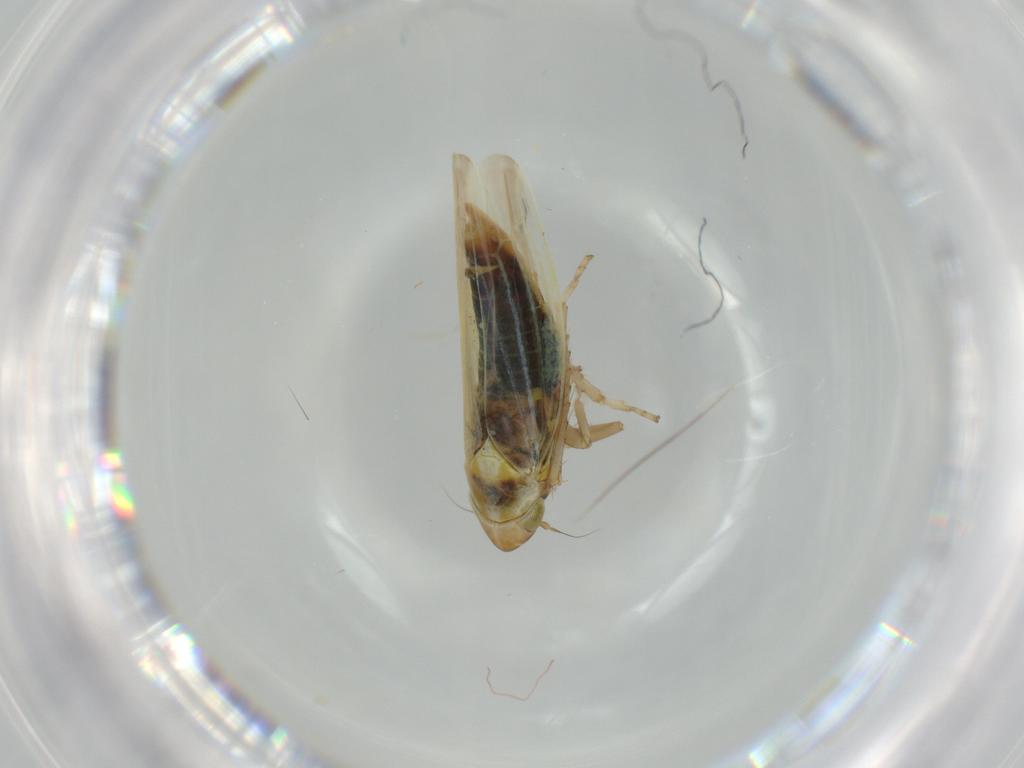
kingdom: Animalia
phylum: Arthropoda
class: Insecta
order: Hemiptera
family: Cicadellidae
